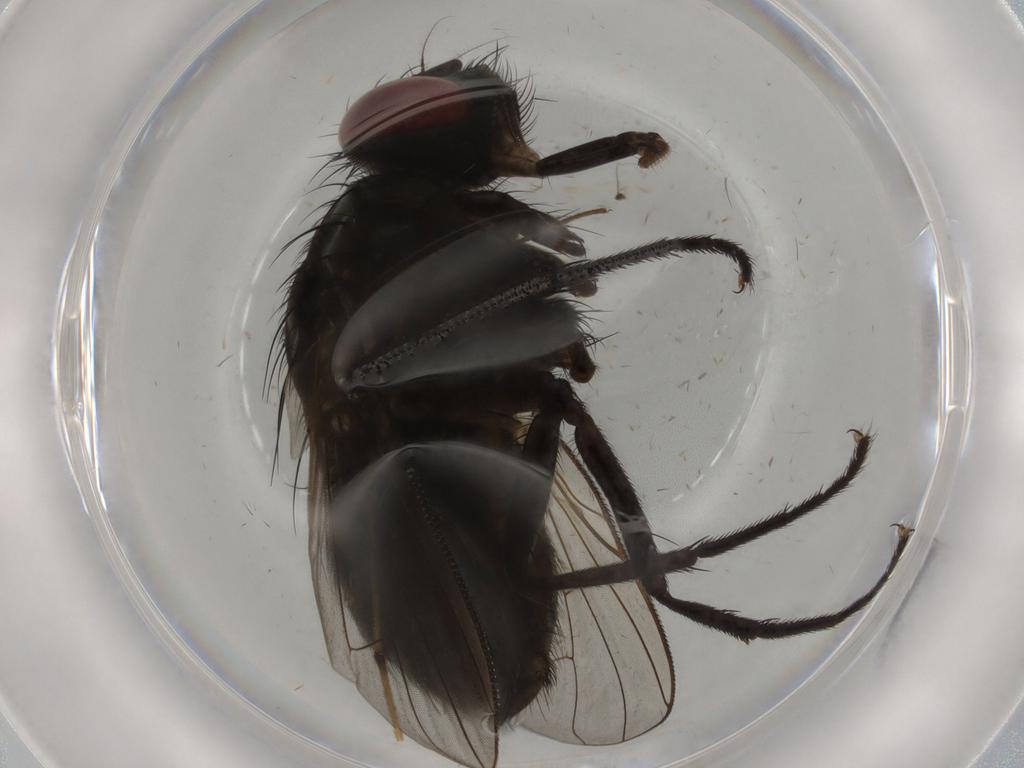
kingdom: Animalia
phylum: Arthropoda
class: Insecta
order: Diptera
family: Muscidae
